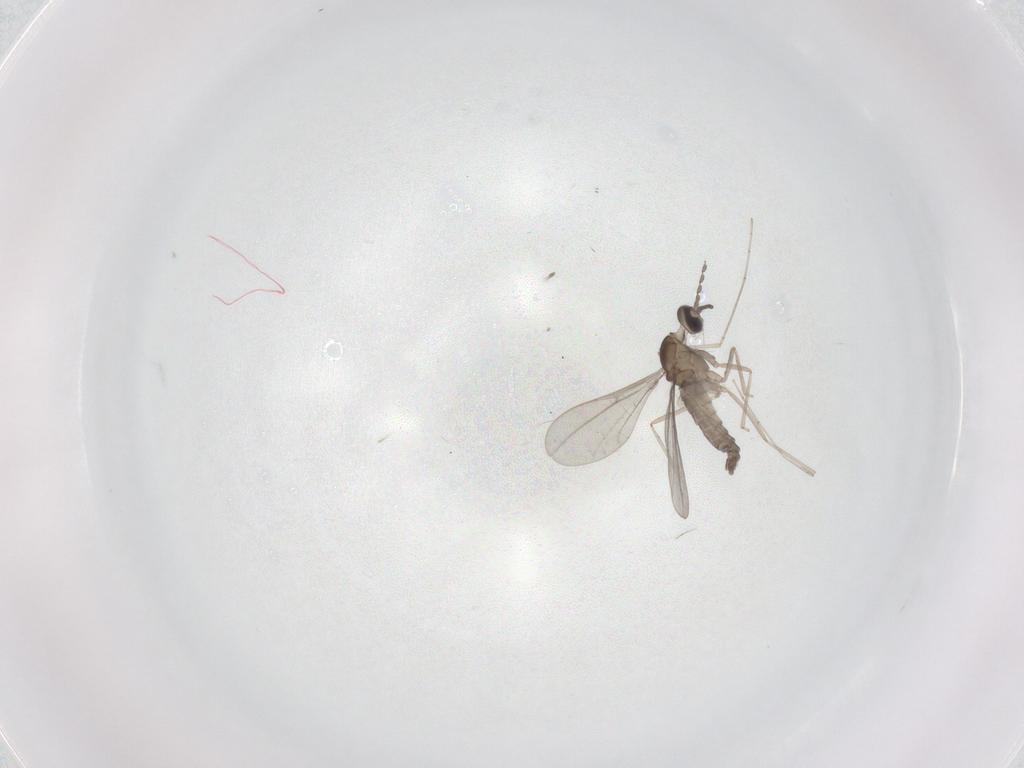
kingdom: Animalia
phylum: Arthropoda
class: Insecta
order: Diptera
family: Cecidomyiidae
